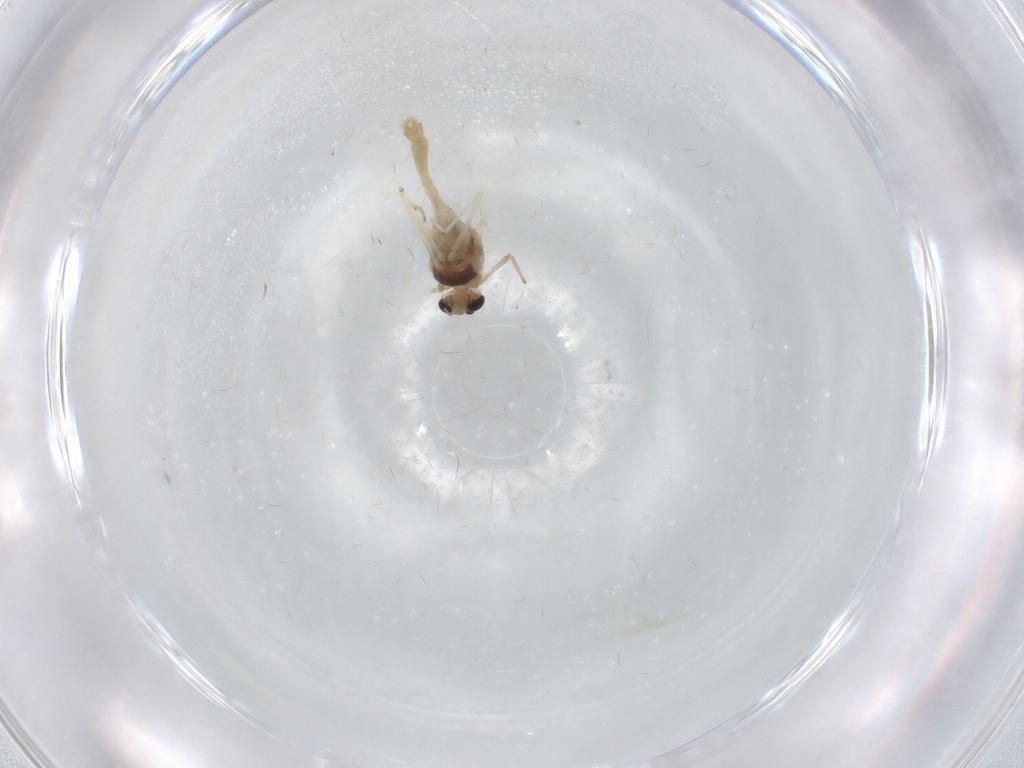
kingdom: Animalia
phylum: Arthropoda
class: Insecta
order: Diptera
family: Chironomidae
